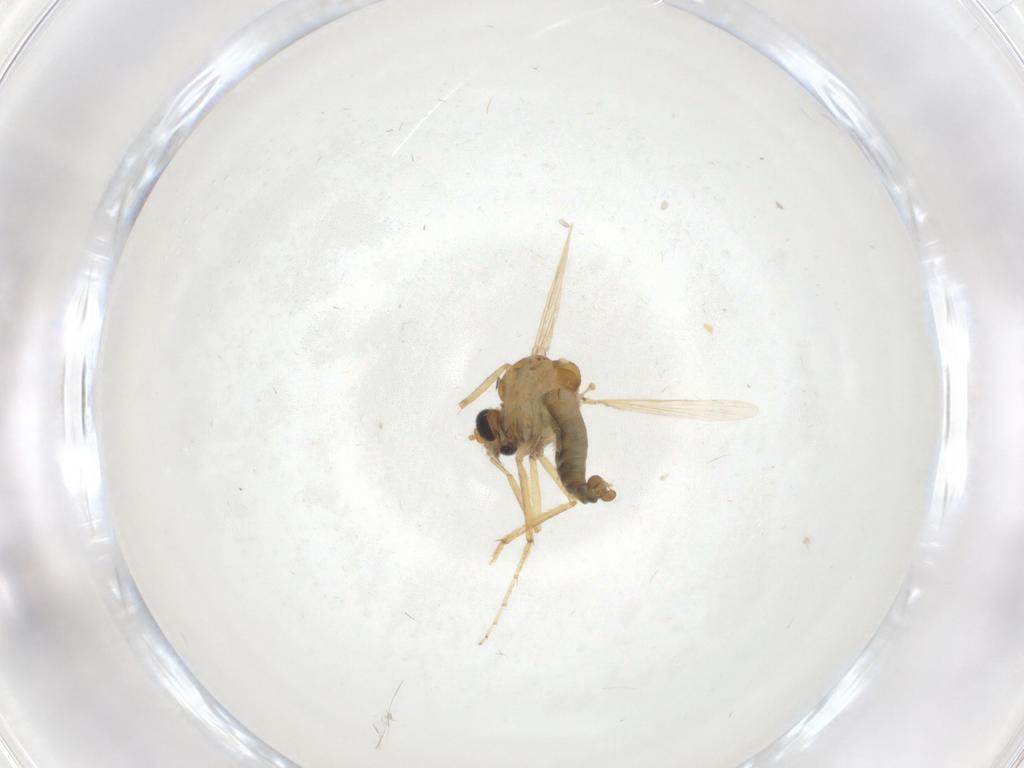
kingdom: Animalia
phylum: Arthropoda
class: Insecta
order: Diptera
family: Ceratopogonidae
